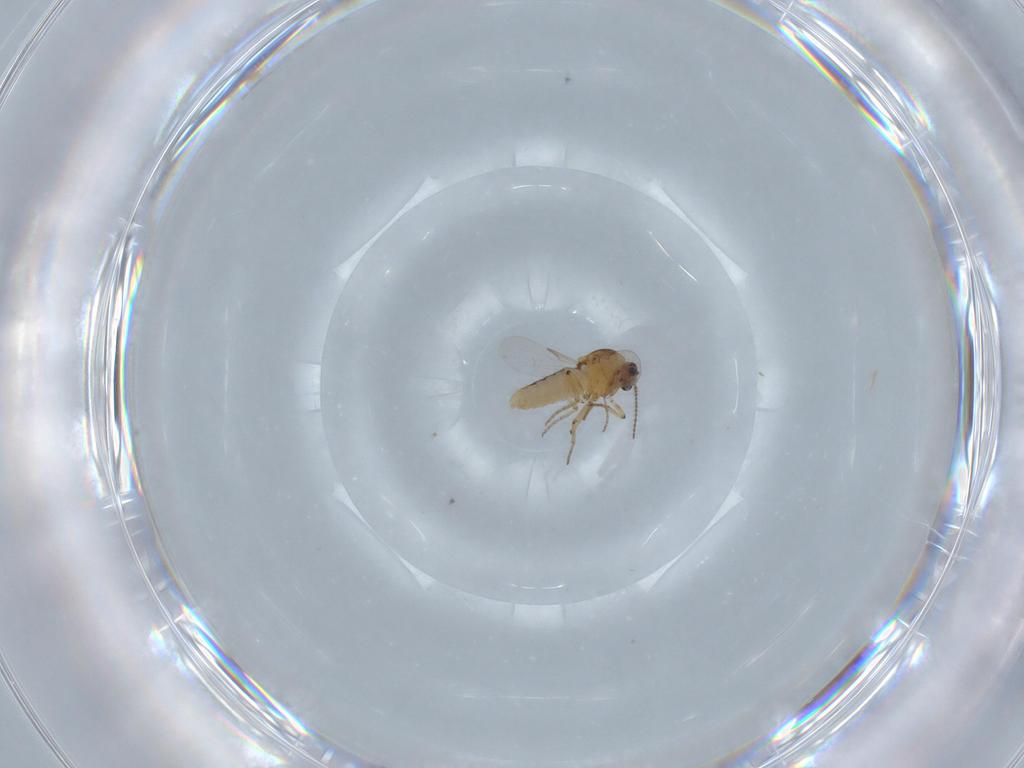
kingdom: Animalia
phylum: Arthropoda
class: Insecta
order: Diptera
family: Ceratopogonidae
